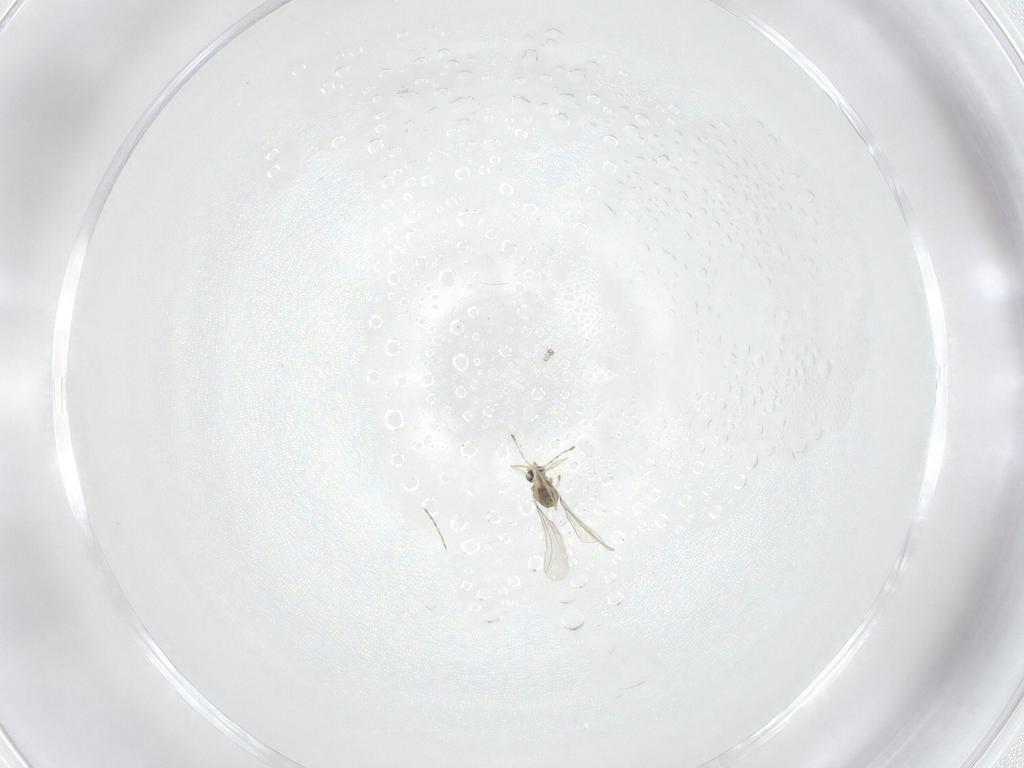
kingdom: Animalia
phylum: Arthropoda
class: Insecta
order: Diptera
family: Cecidomyiidae
